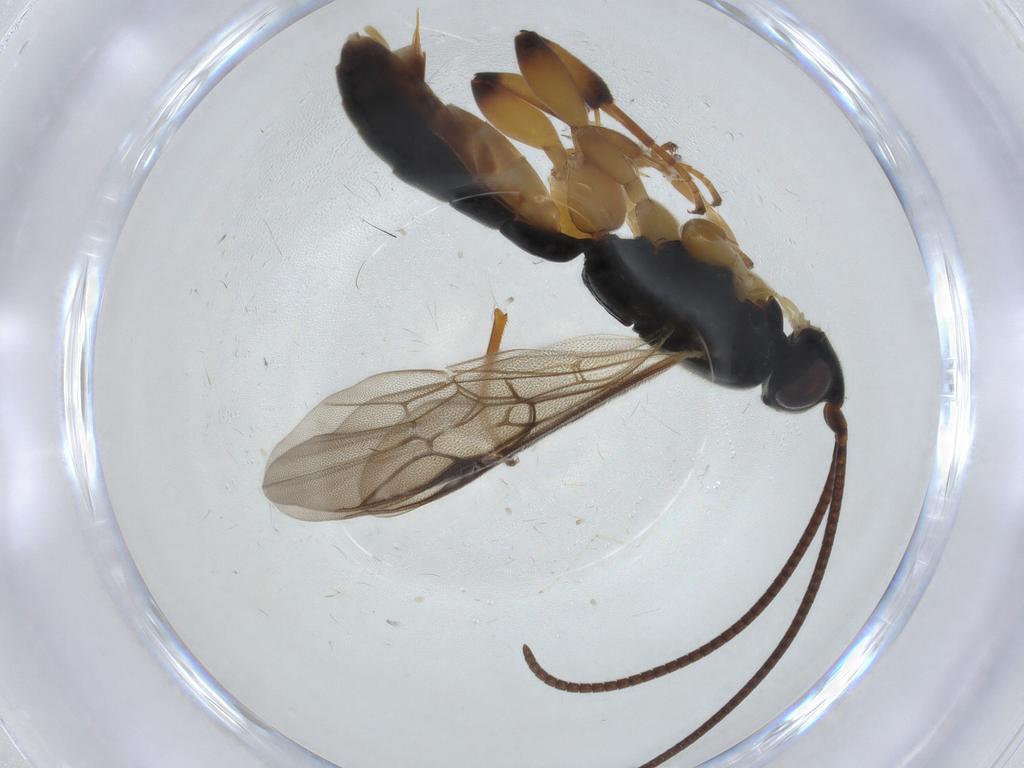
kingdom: Animalia
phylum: Arthropoda
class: Insecta
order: Hymenoptera
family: Ichneumonidae
